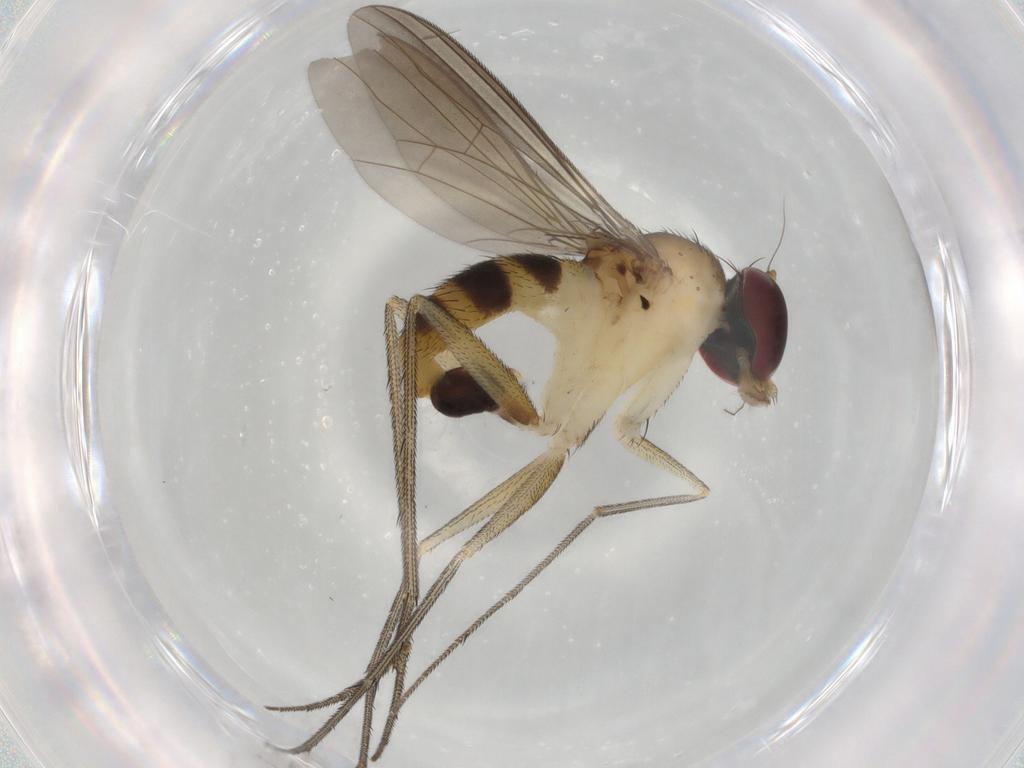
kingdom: Animalia
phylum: Arthropoda
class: Insecta
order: Diptera
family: Dolichopodidae
